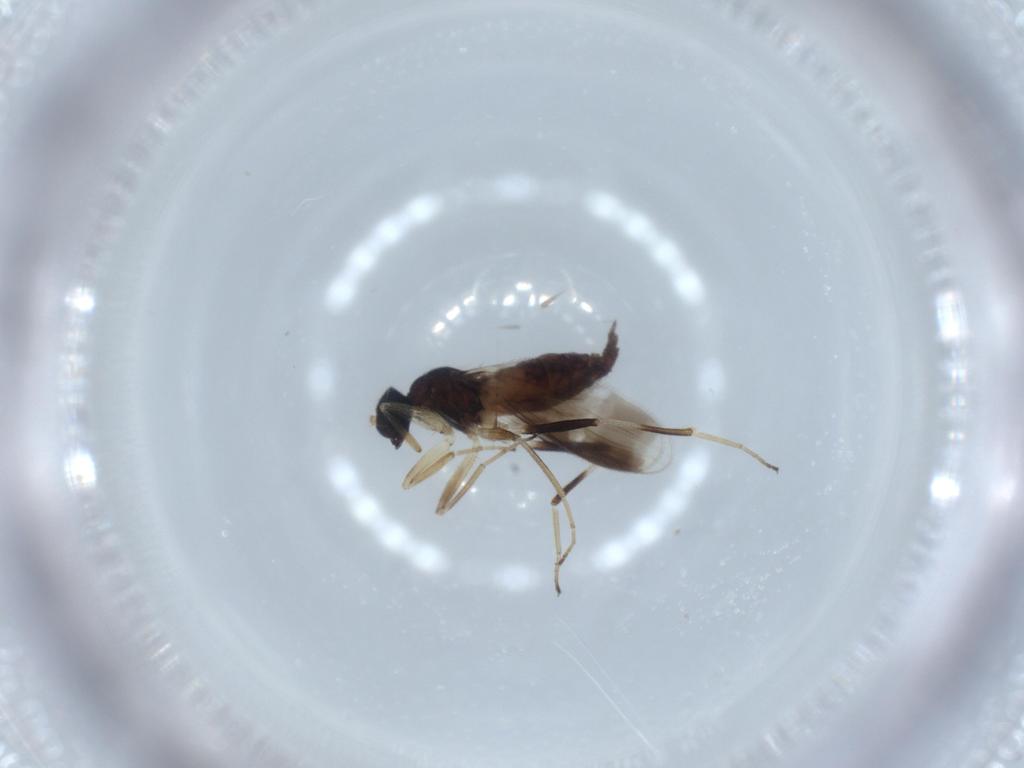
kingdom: Animalia
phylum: Arthropoda
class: Insecta
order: Diptera
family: Hybotidae
